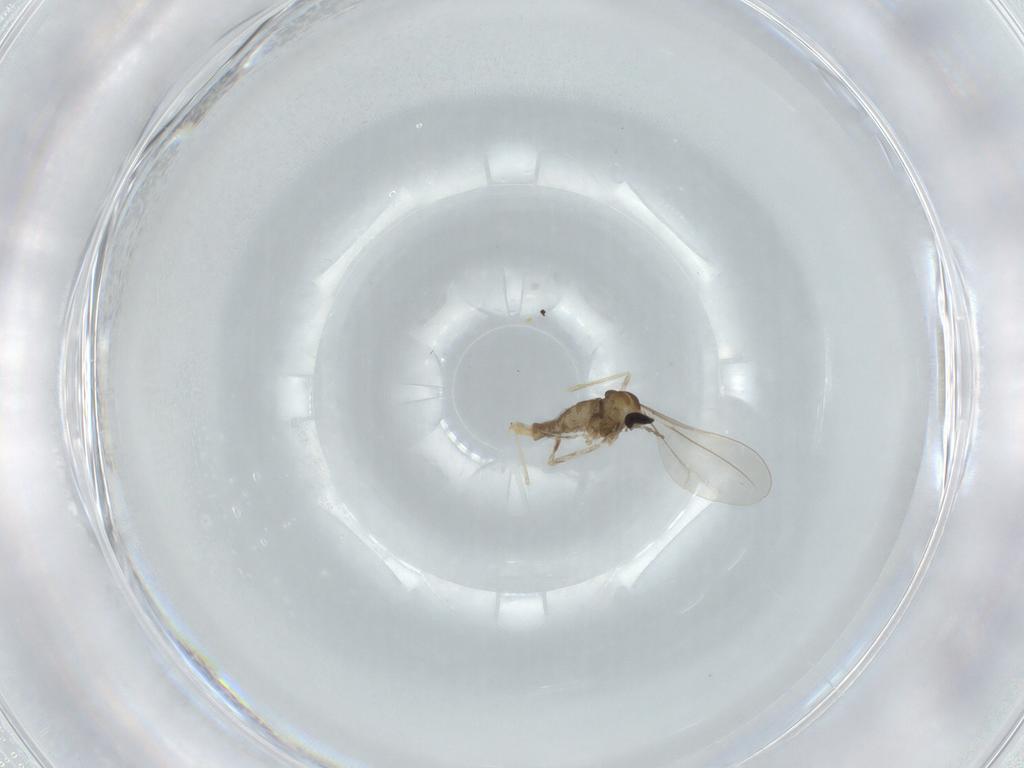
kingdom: Animalia
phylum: Arthropoda
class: Insecta
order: Diptera
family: Cecidomyiidae
